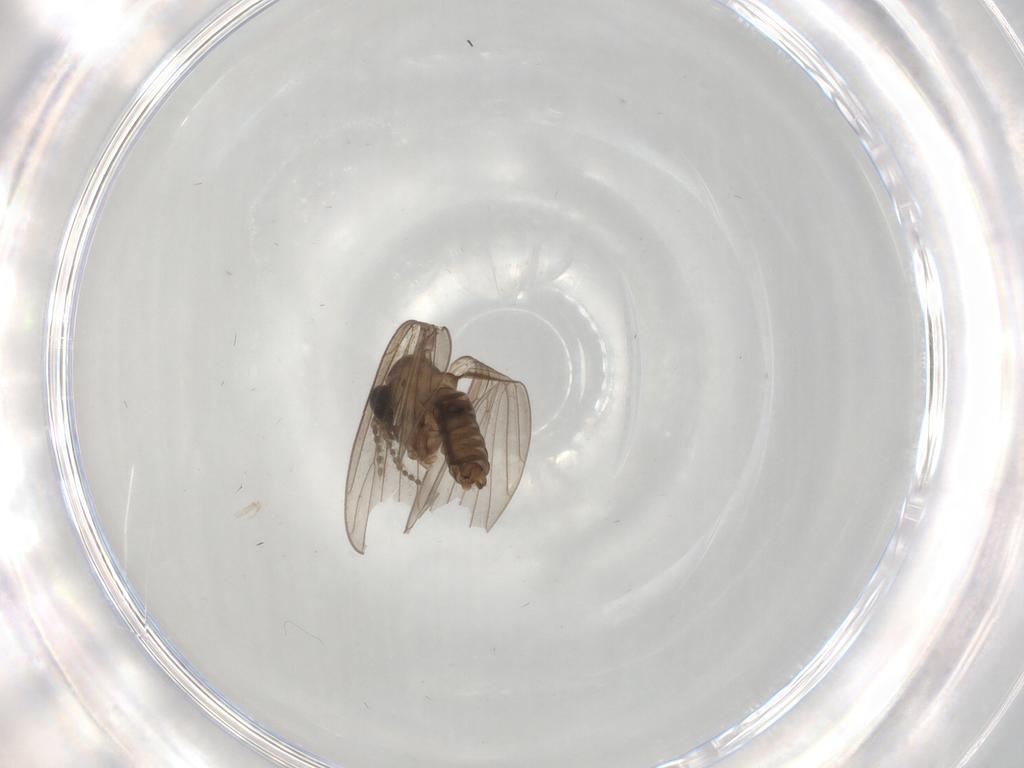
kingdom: Animalia
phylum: Arthropoda
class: Insecta
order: Diptera
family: Psychodidae
